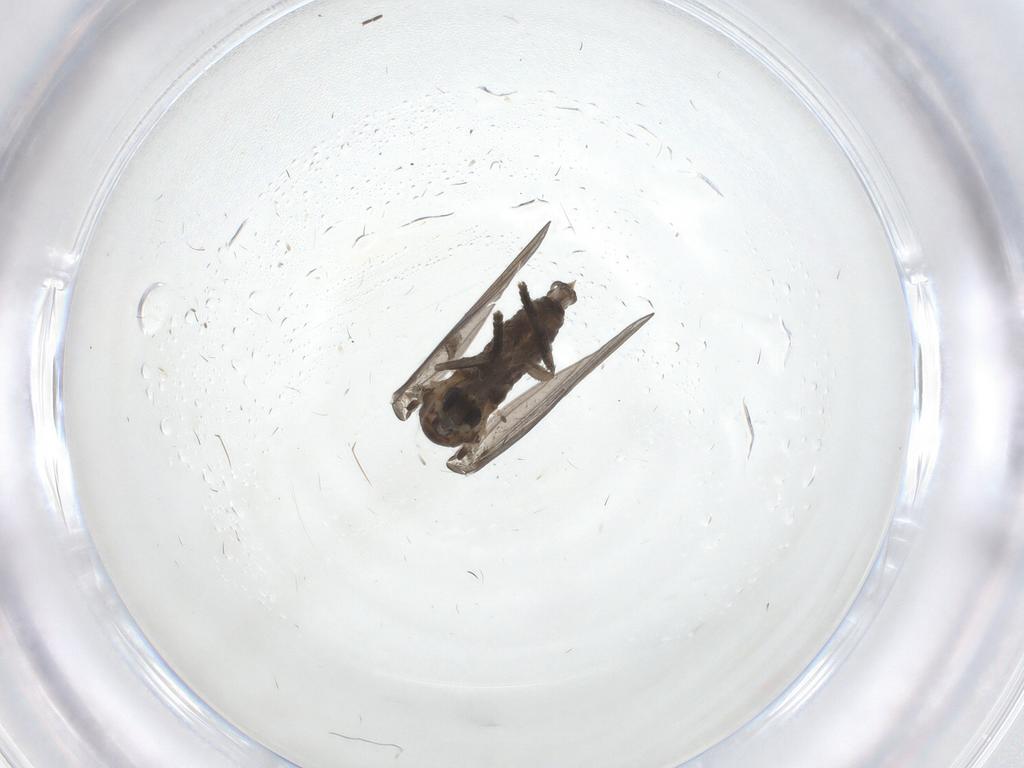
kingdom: Animalia
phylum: Arthropoda
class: Insecta
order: Diptera
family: Psychodidae
